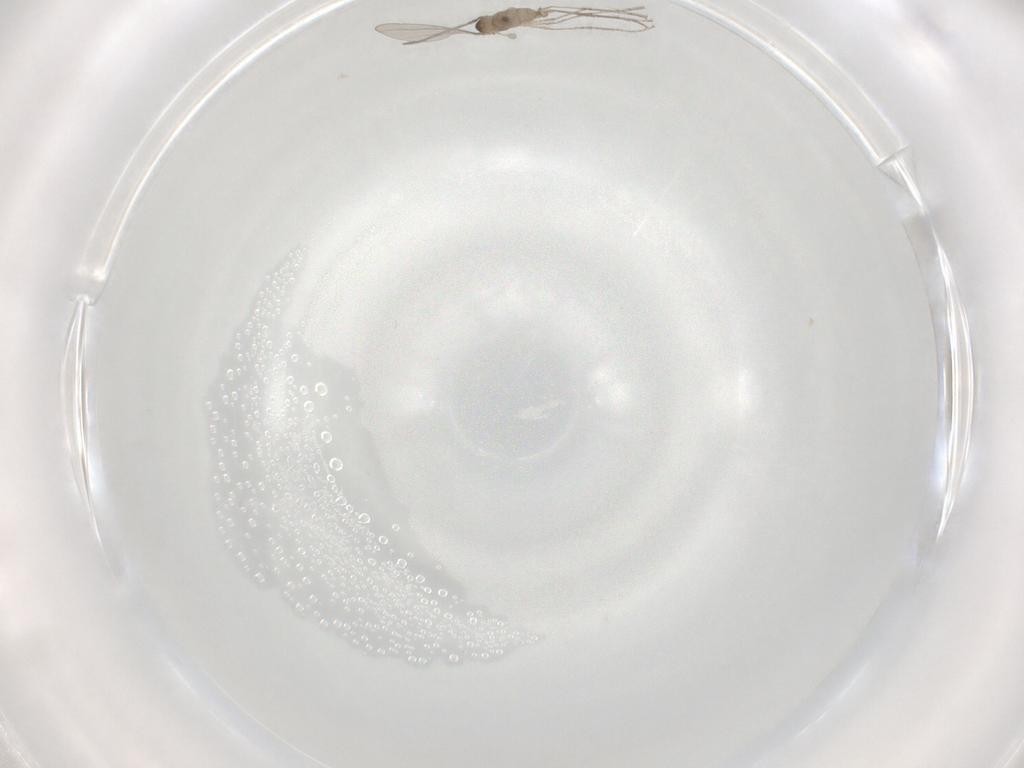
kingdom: Animalia
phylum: Arthropoda
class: Insecta
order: Diptera
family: Cecidomyiidae
